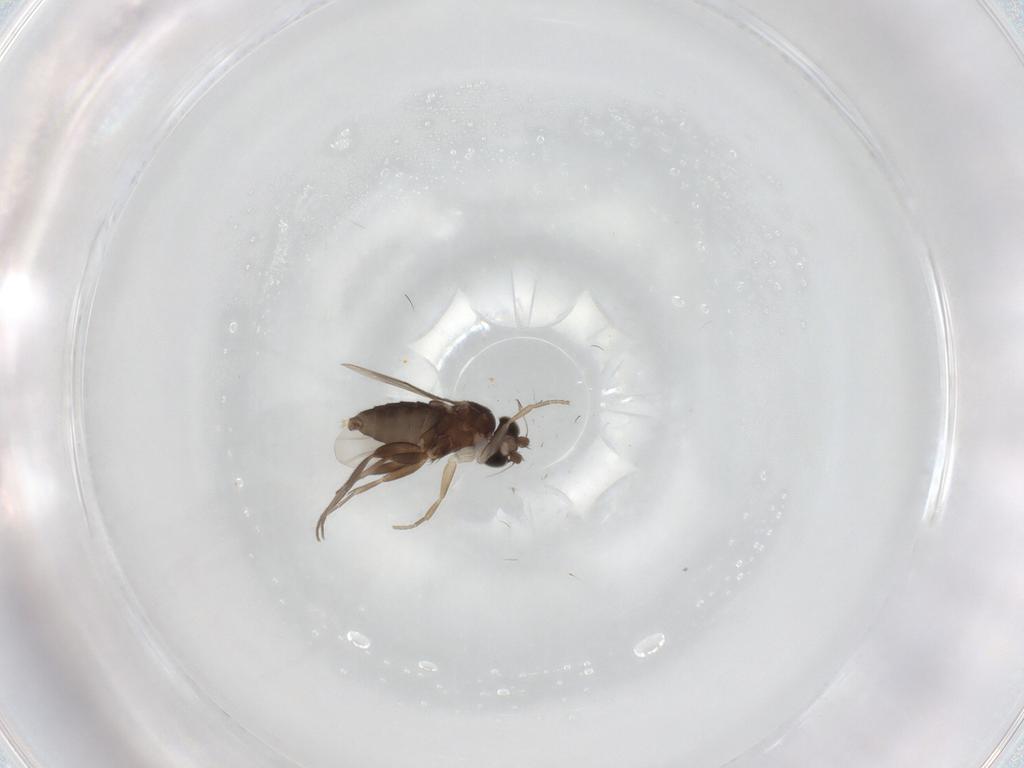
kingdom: Animalia
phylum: Arthropoda
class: Insecta
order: Diptera
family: Phoridae
